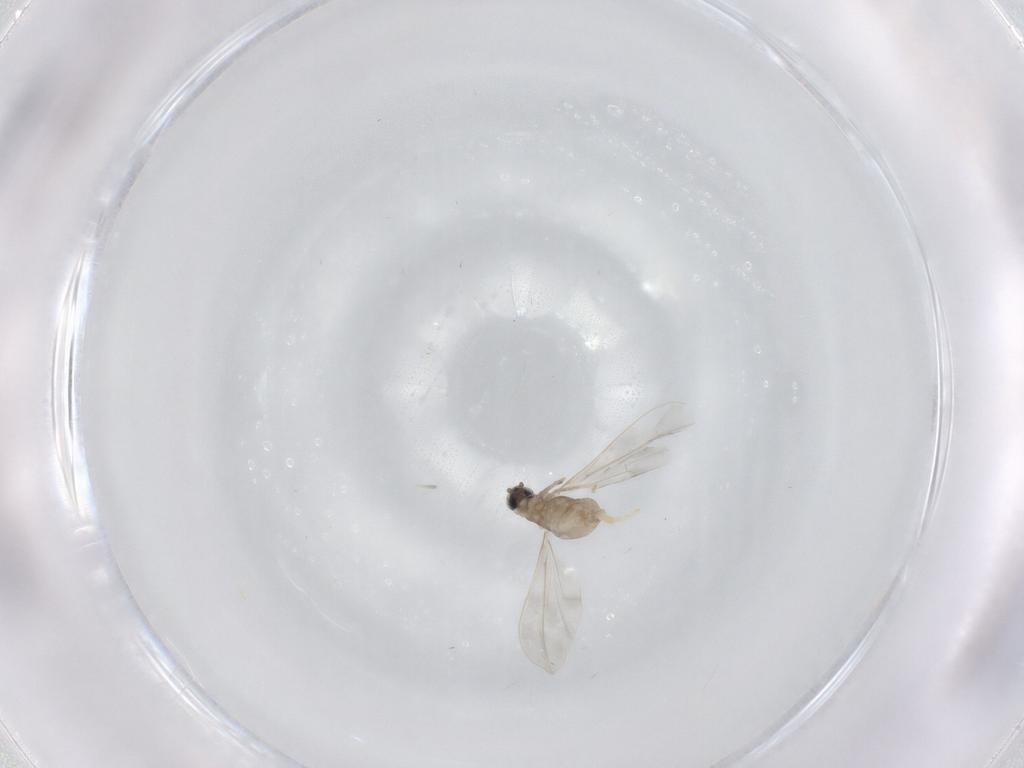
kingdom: Animalia
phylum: Arthropoda
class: Insecta
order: Diptera
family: Cecidomyiidae
